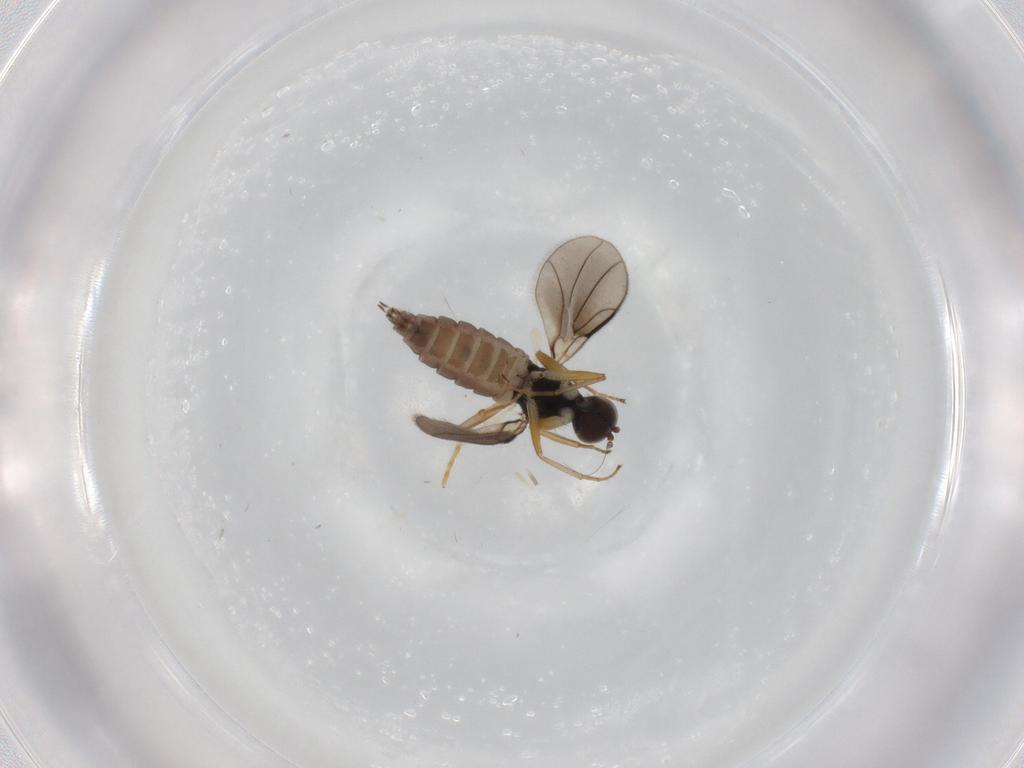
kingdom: Animalia
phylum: Arthropoda
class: Insecta
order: Diptera
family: Hybotidae
